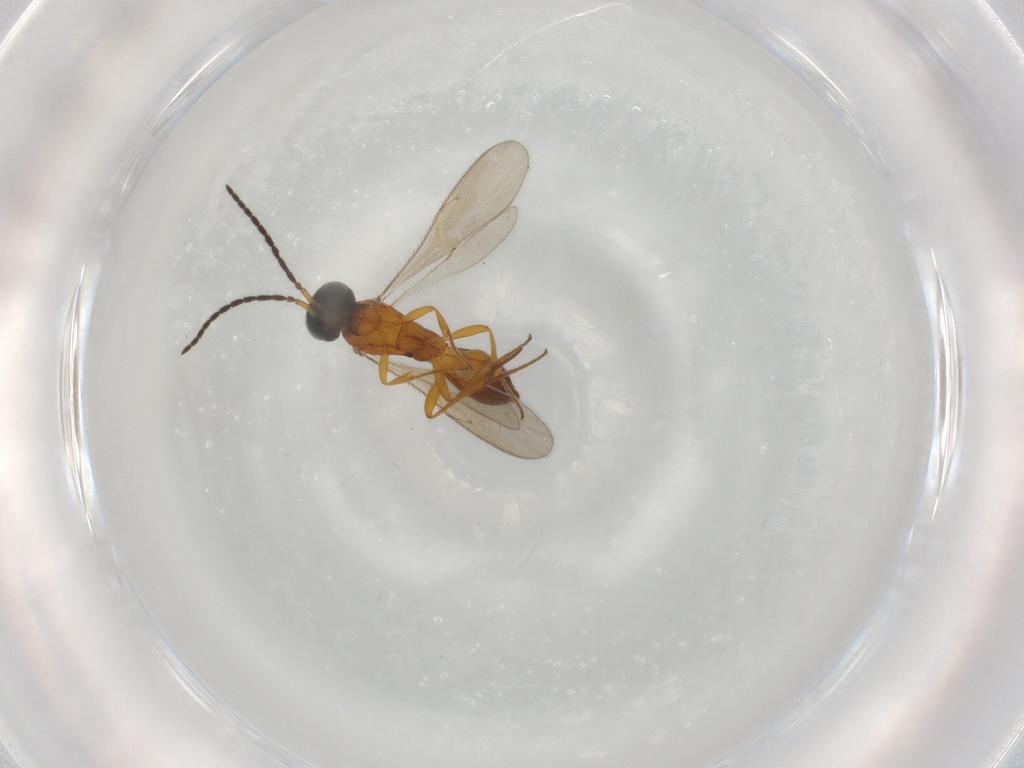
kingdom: Animalia
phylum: Arthropoda
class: Insecta
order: Hymenoptera
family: Scelionidae
